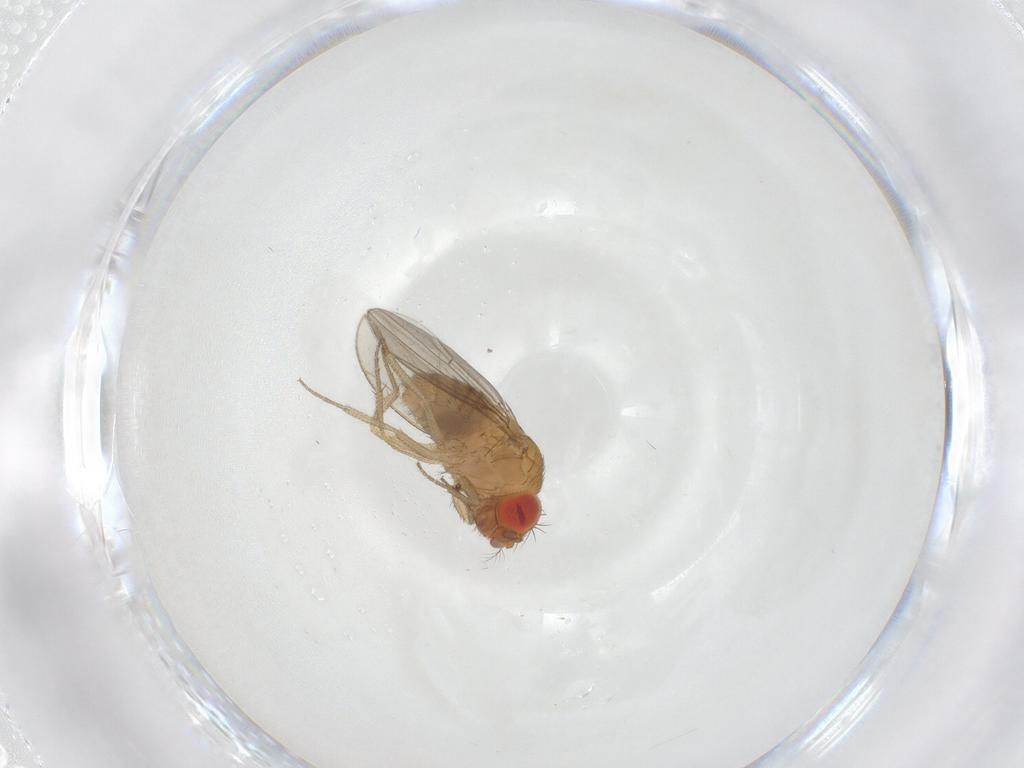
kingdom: Animalia
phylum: Arthropoda
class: Insecta
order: Diptera
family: Drosophilidae
